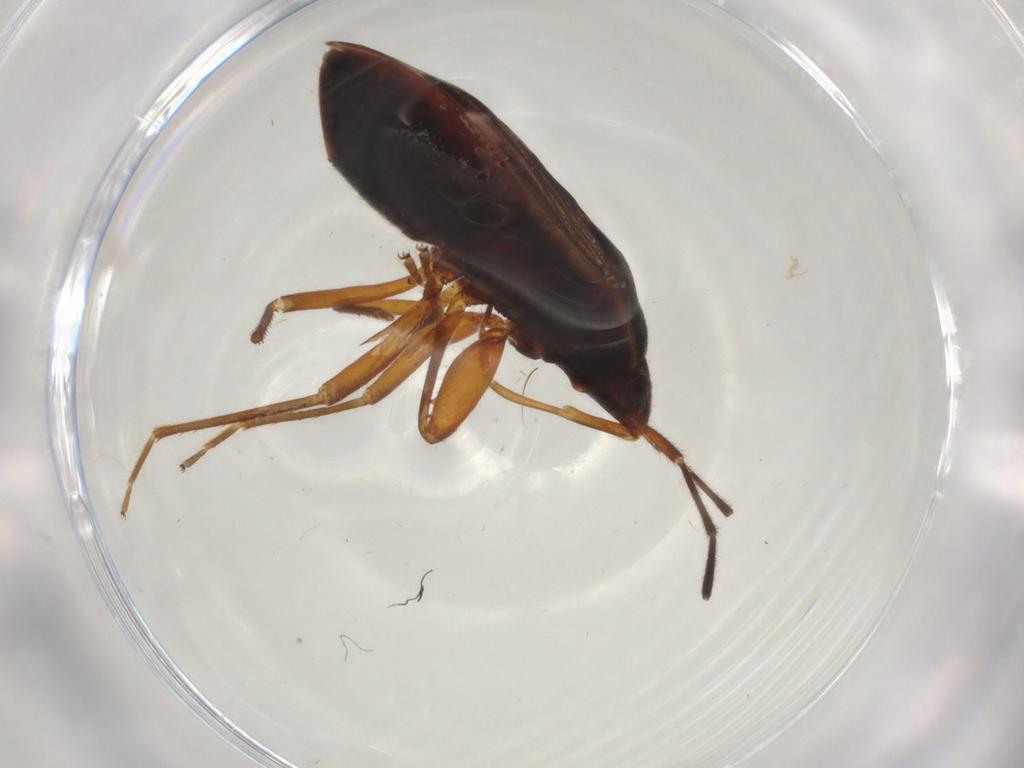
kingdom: Animalia
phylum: Arthropoda
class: Insecta
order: Hemiptera
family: Rhyparochromidae
